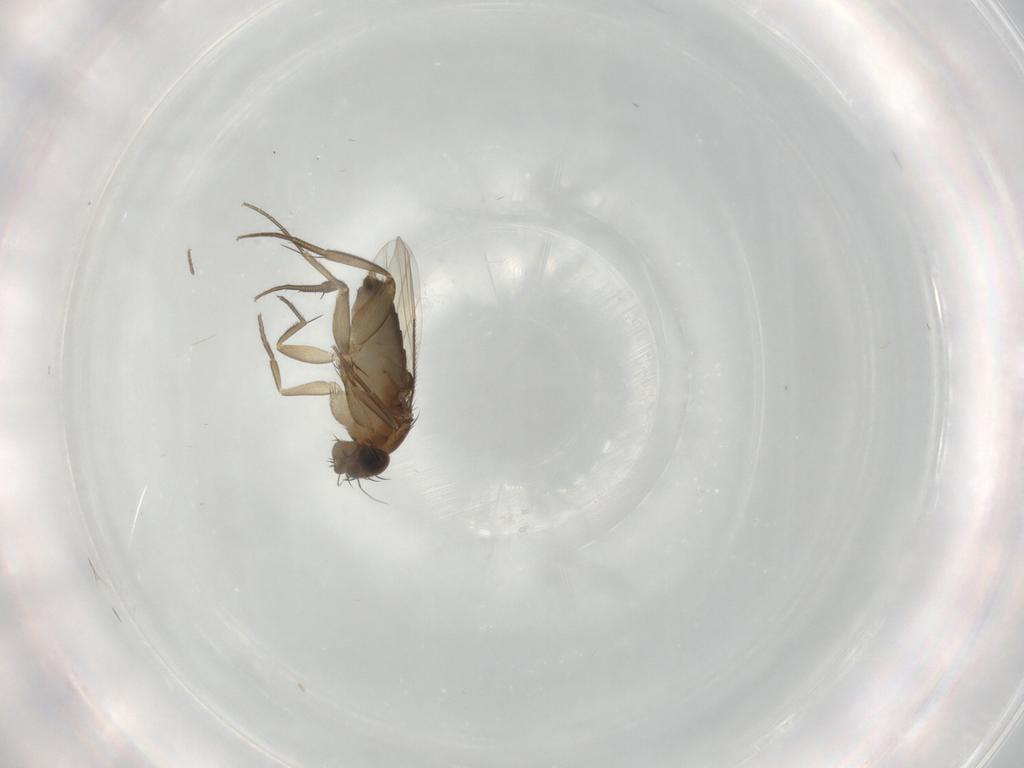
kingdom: Animalia
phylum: Arthropoda
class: Insecta
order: Diptera
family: Phoridae
